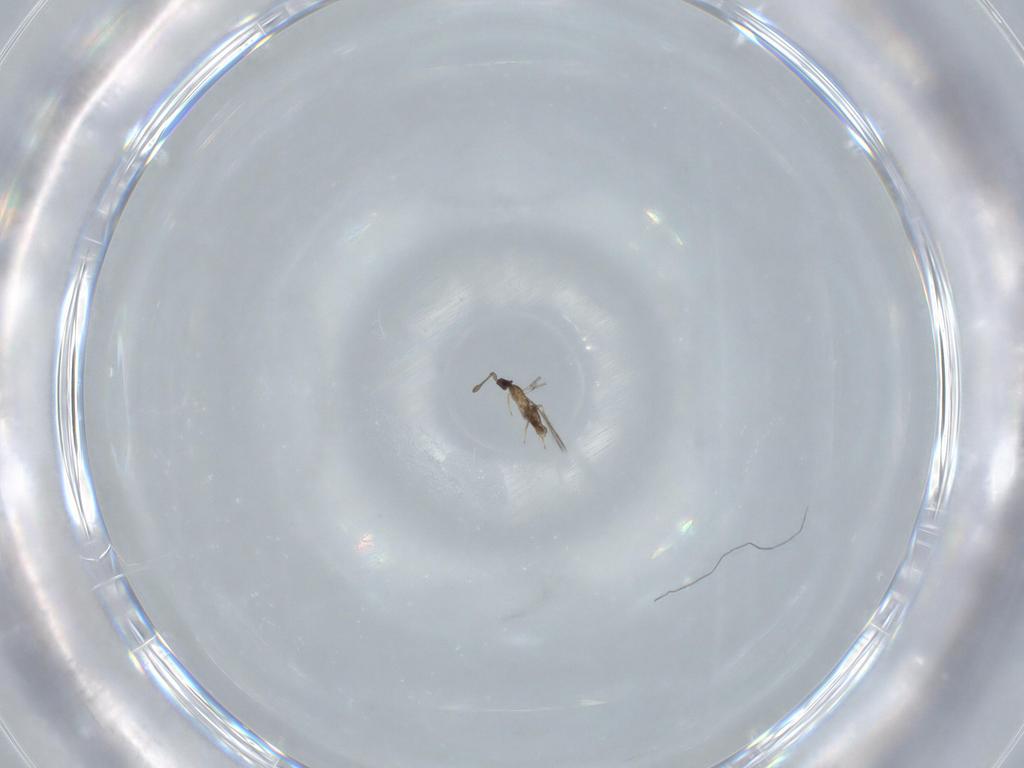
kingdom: Animalia
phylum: Arthropoda
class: Insecta
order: Hymenoptera
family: Mymaridae
